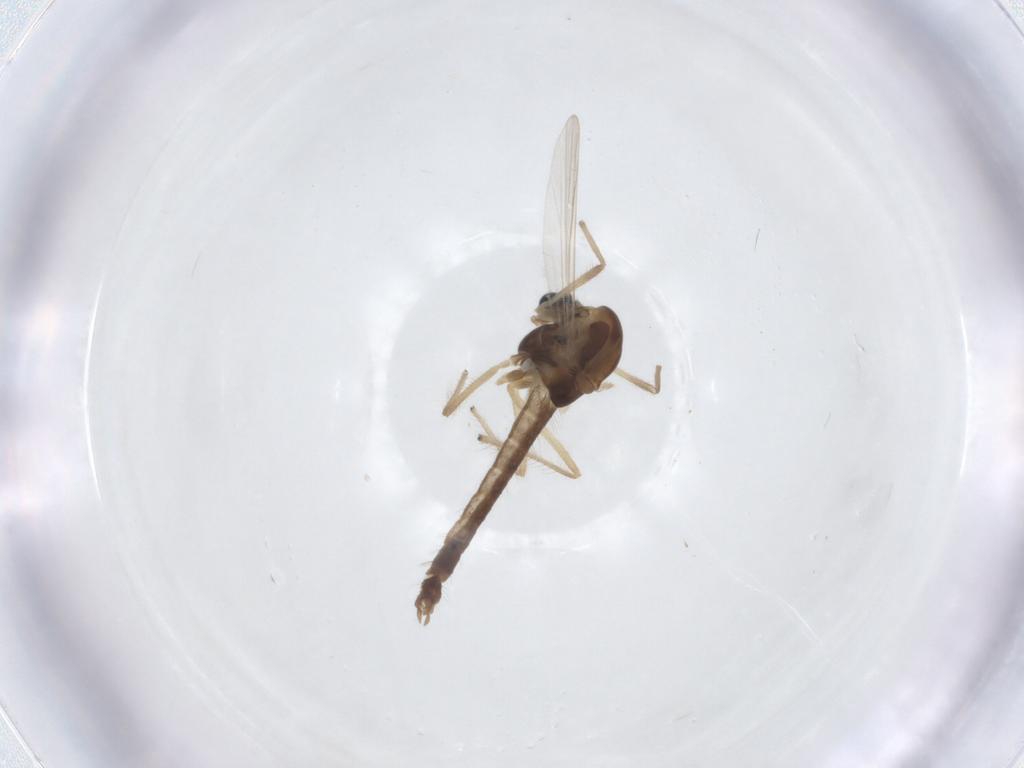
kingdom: Animalia
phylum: Arthropoda
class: Insecta
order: Diptera
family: Chironomidae
